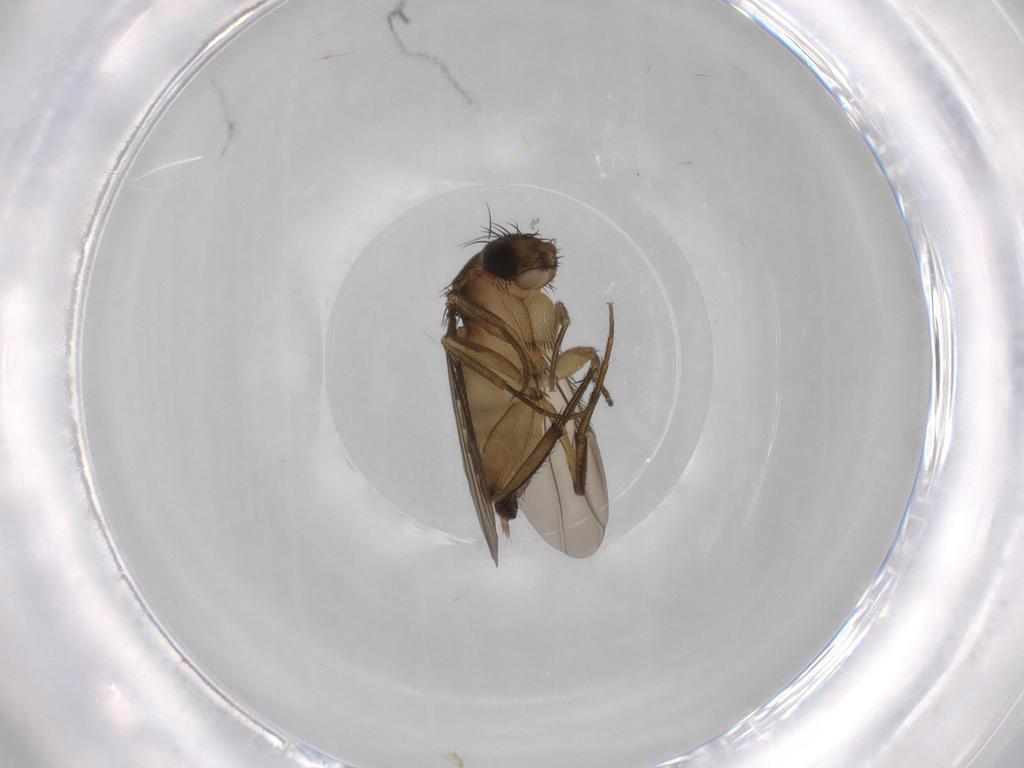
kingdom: Animalia
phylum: Arthropoda
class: Insecta
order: Diptera
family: Phoridae
